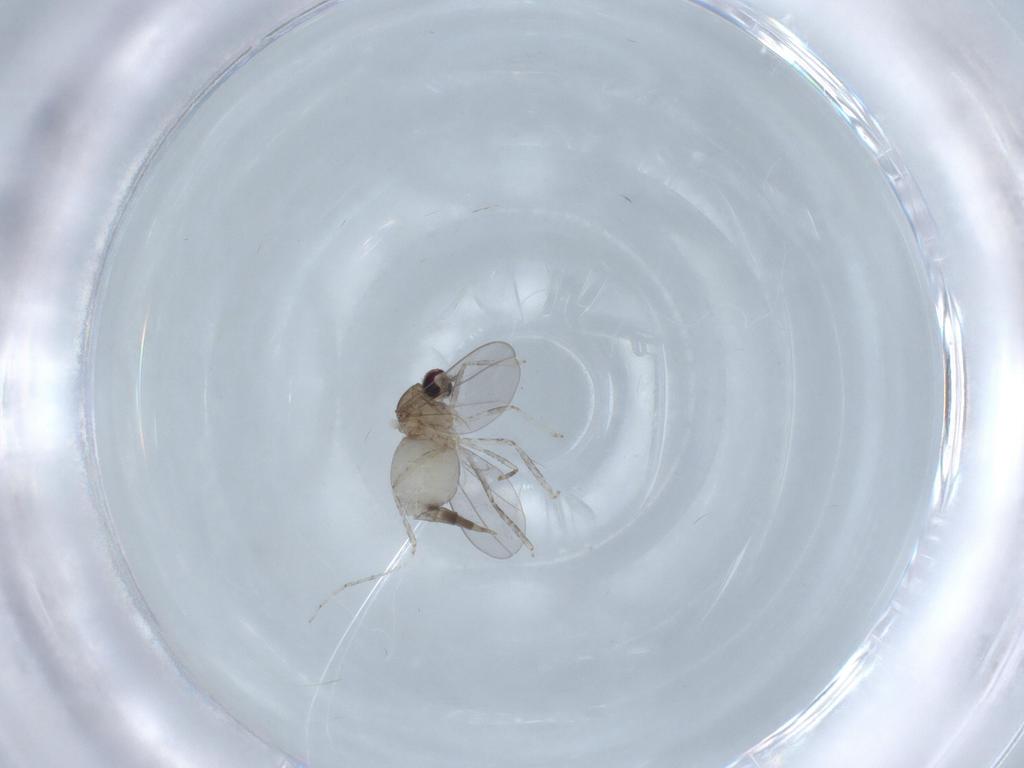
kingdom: Animalia
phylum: Arthropoda
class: Insecta
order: Diptera
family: Cecidomyiidae
